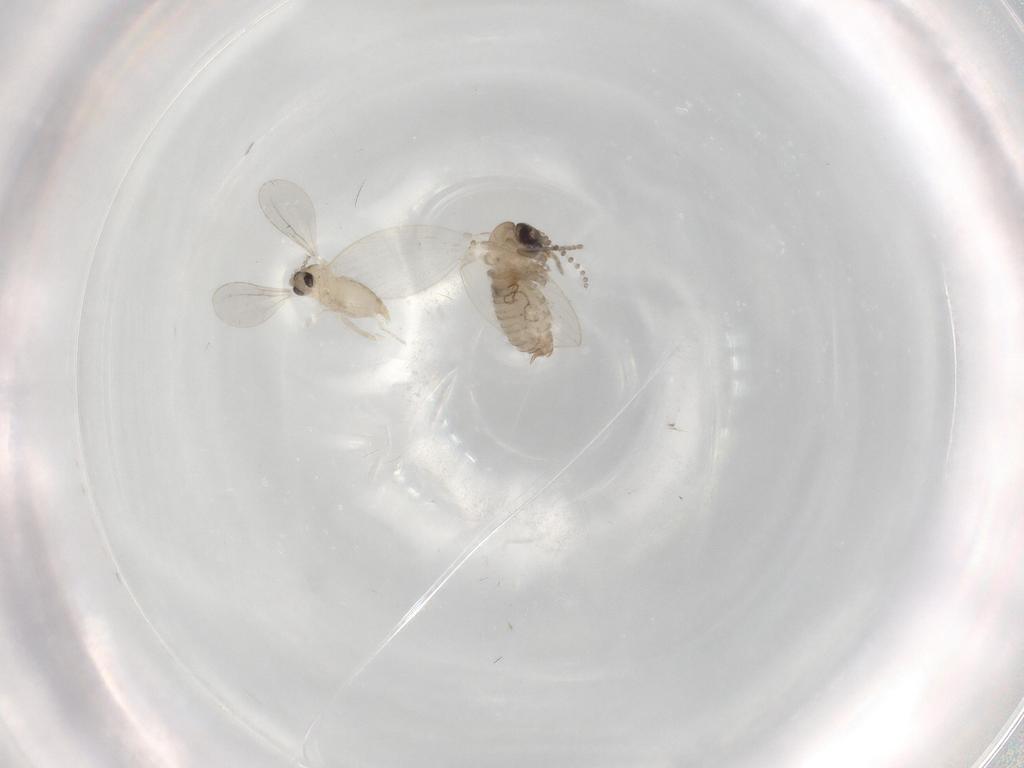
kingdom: Animalia
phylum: Arthropoda
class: Insecta
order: Diptera
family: Psychodidae
